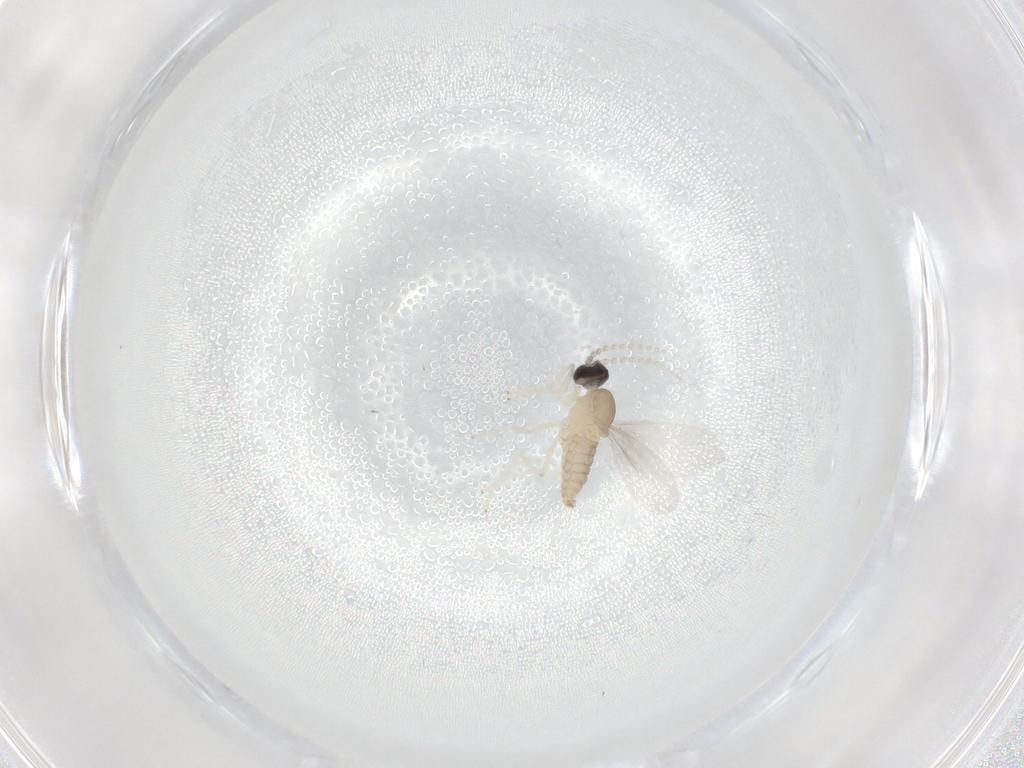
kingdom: Animalia
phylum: Arthropoda
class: Insecta
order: Diptera
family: Cecidomyiidae
